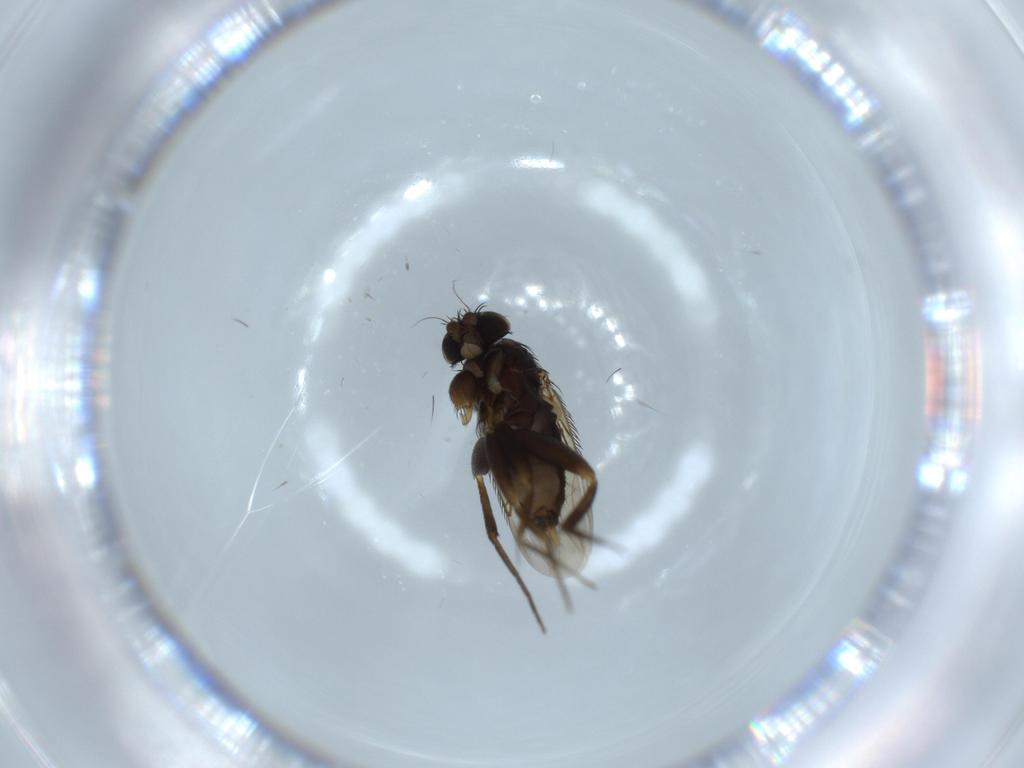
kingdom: Animalia
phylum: Arthropoda
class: Insecta
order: Diptera
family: Phoridae
